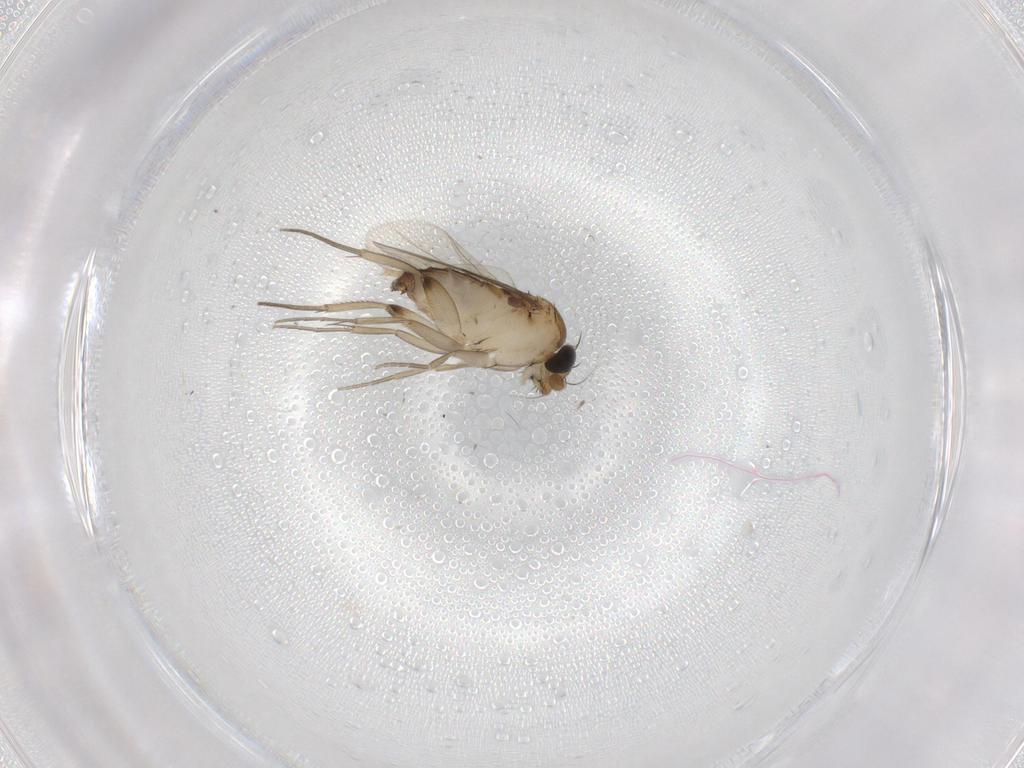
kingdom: Animalia
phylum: Arthropoda
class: Insecta
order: Diptera
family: Phoridae
